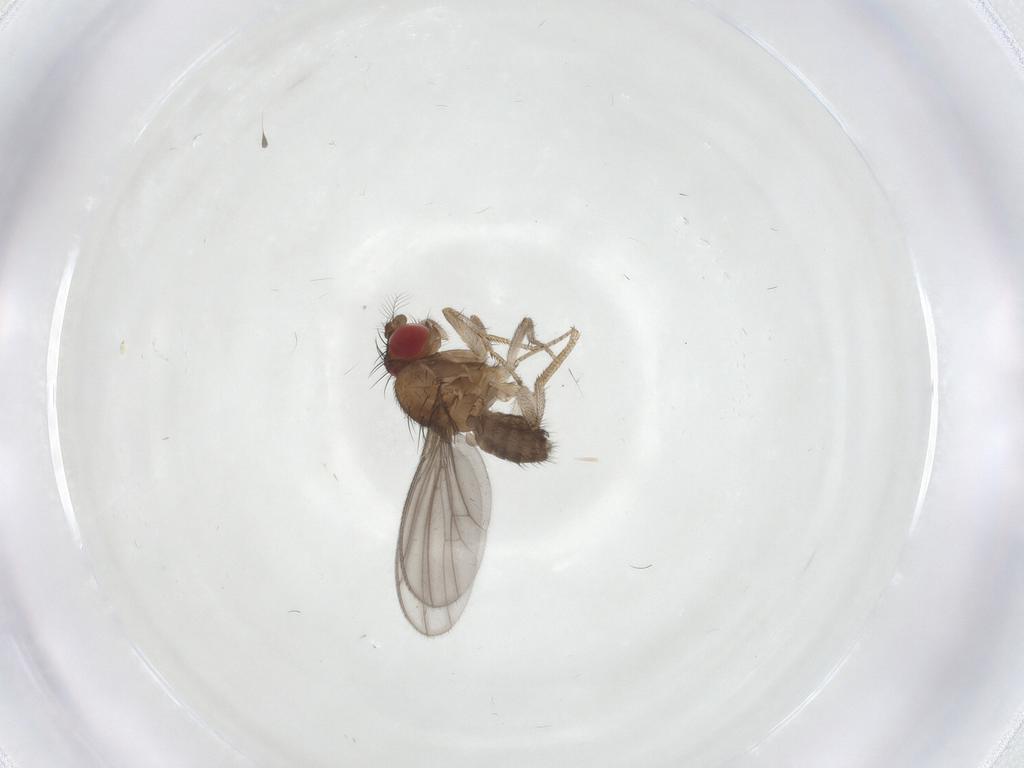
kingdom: Animalia
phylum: Arthropoda
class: Insecta
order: Diptera
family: Drosophilidae
